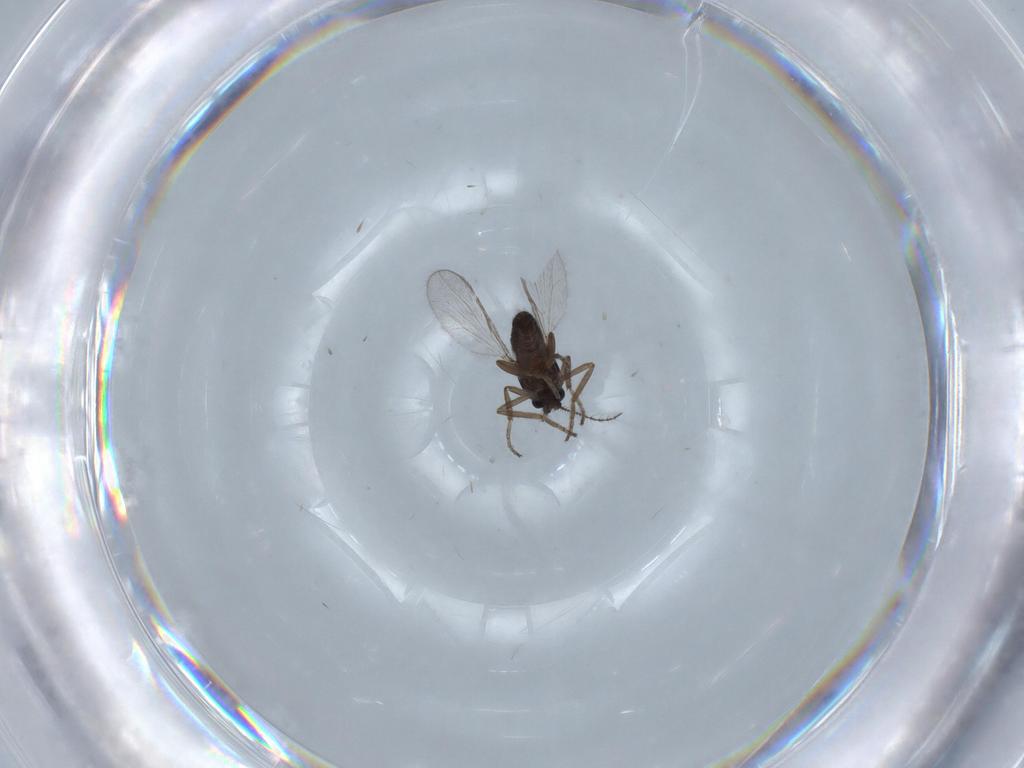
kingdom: Animalia
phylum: Arthropoda
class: Insecta
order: Diptera
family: Ceratopogonidae
